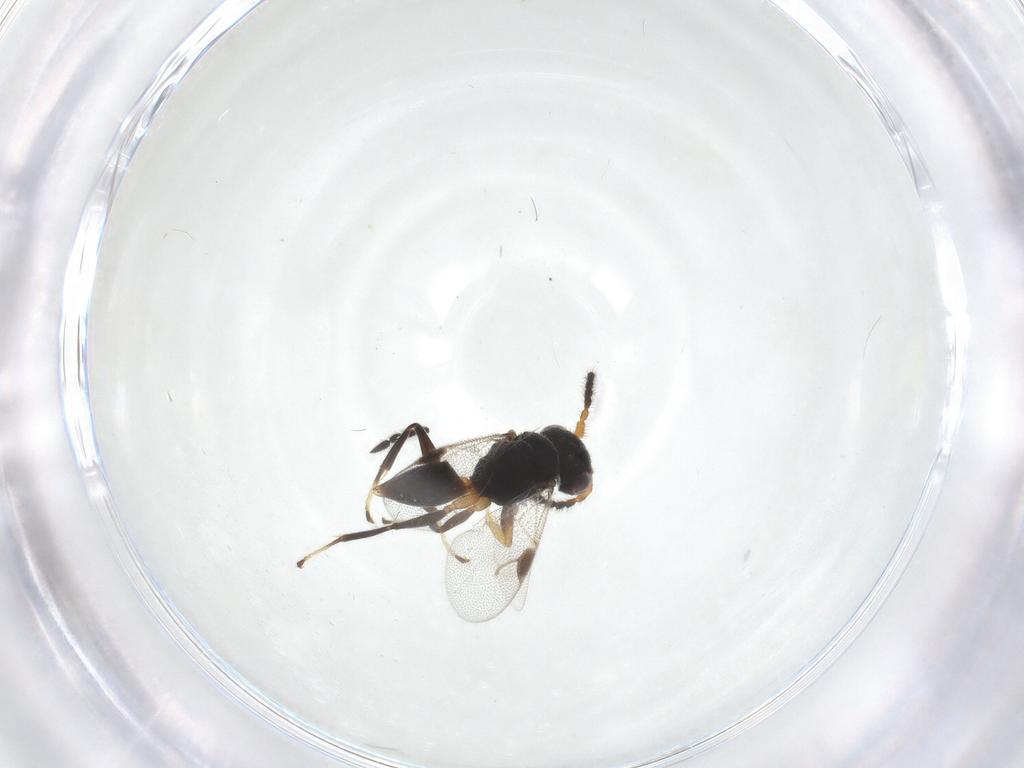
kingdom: Animalia
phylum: Arthropoda
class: Insecta
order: Hymenoptera
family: Dryinidae
